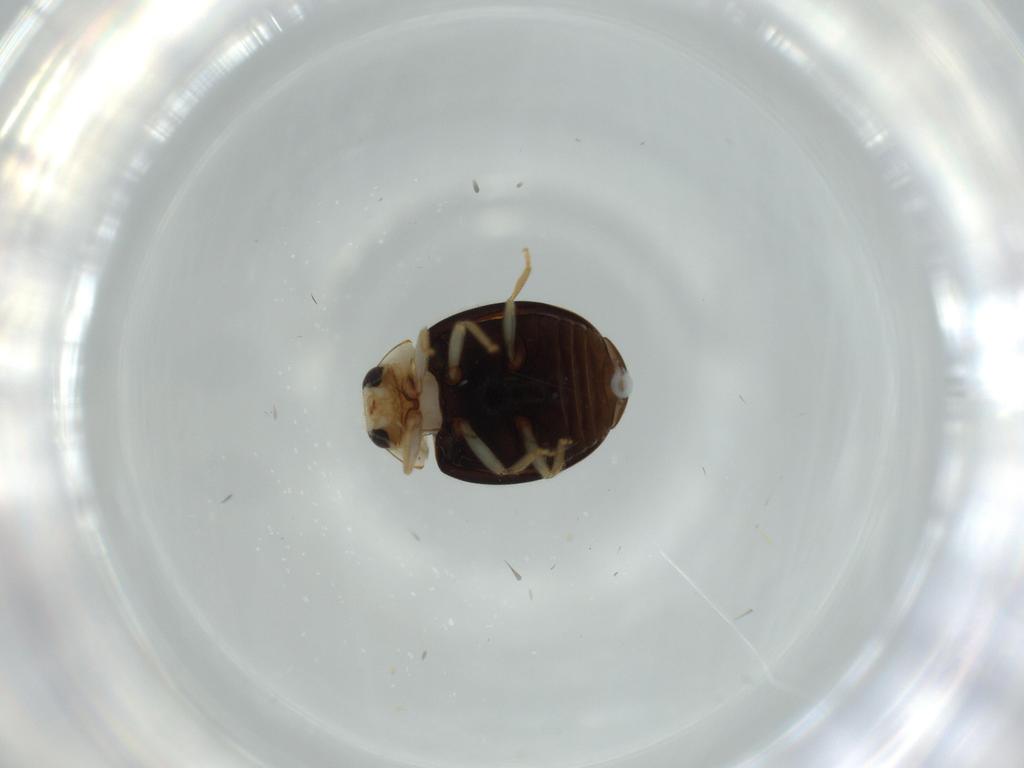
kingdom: Animalia
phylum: Arthropoda
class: Insecta
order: Coleoptera
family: Coccinellidae
